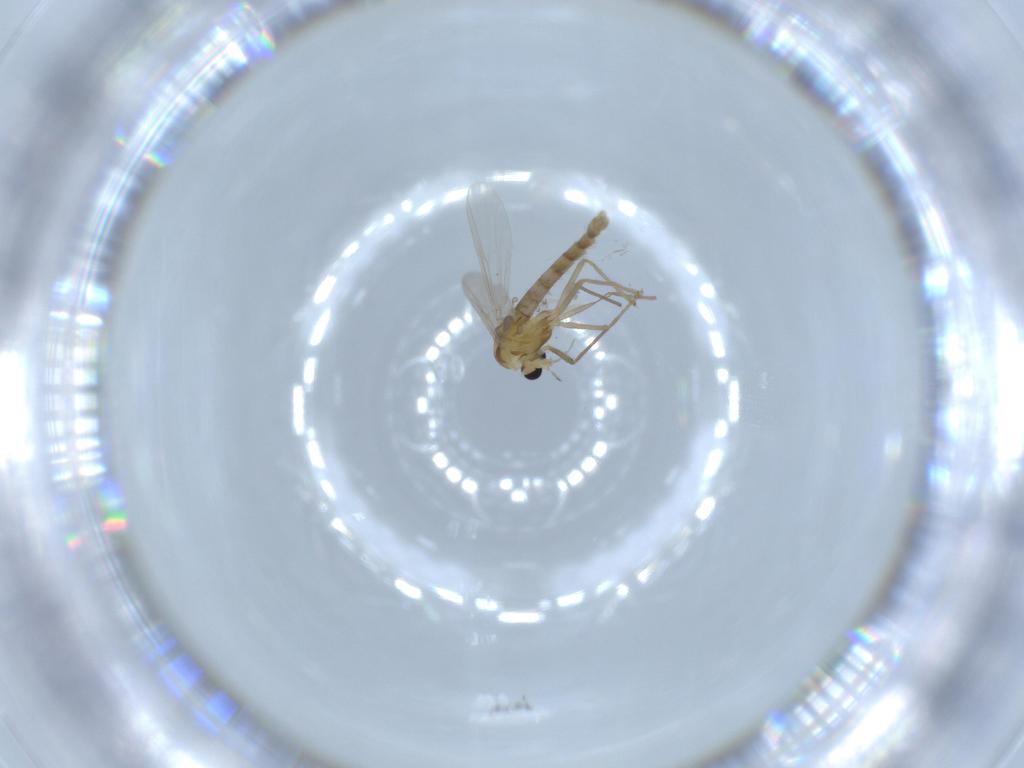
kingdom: Animalia
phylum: Arthropoda
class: Insecta
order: Diptera
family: Chironomidae
